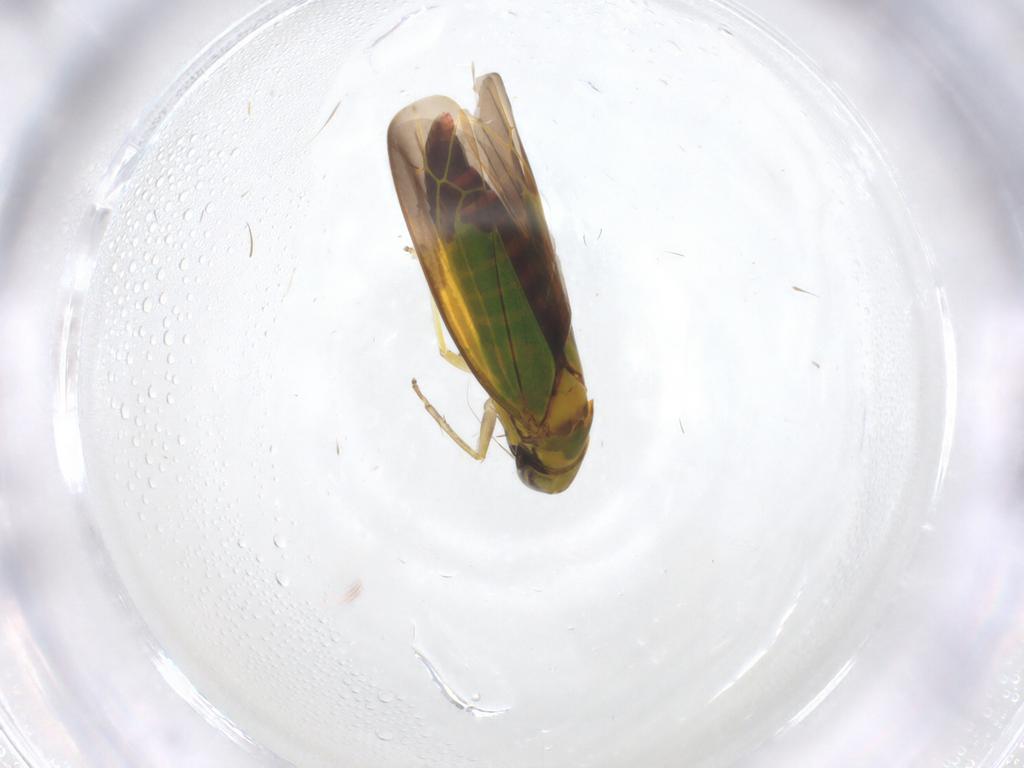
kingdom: Animalia
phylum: Arthropoda
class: Insecta
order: Hemiptera
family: Cicadellidae
